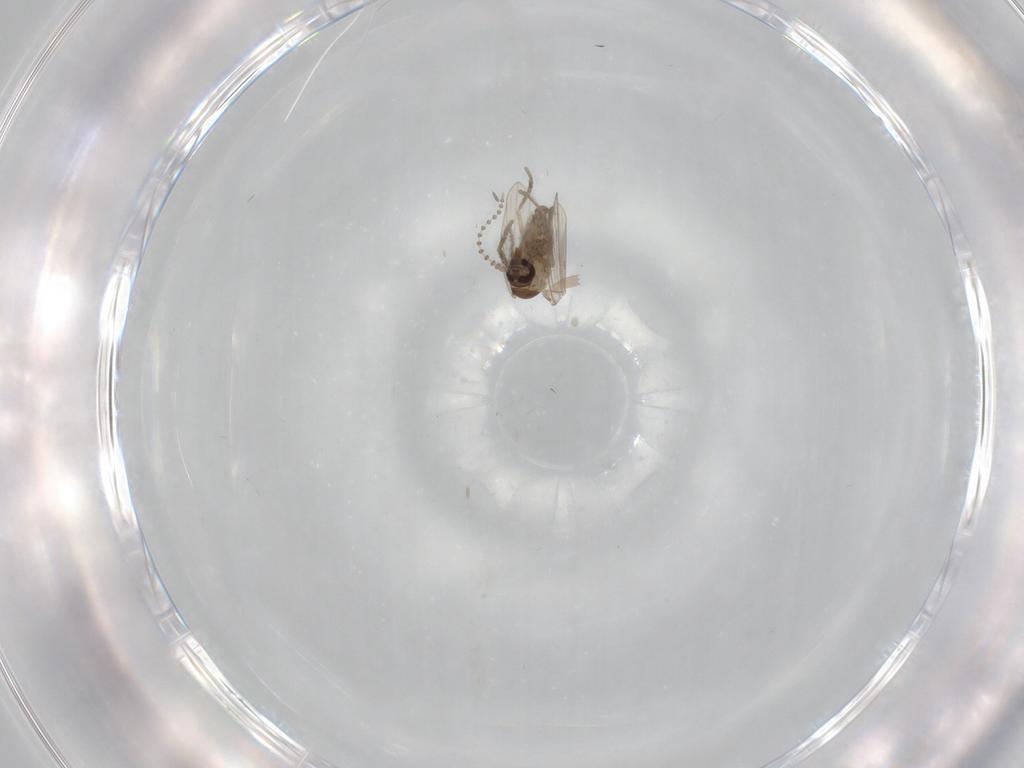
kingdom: Animalia
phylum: Arthropoda
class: Insecta
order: Diptera
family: Psychodidae
